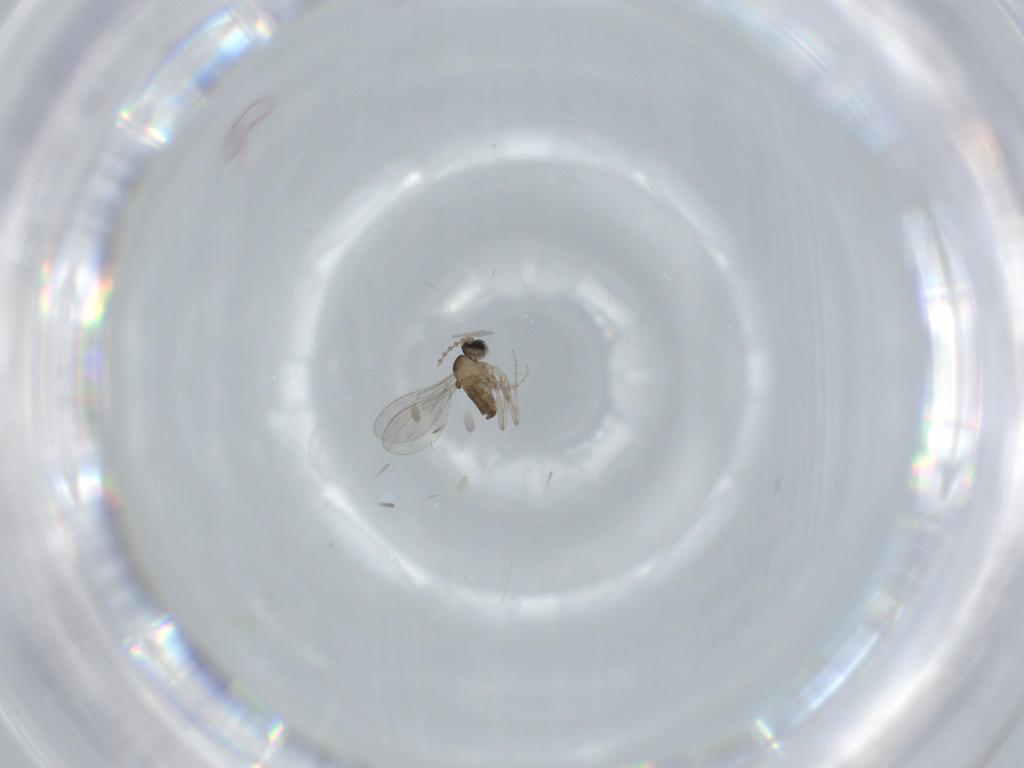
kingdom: Animalia
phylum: Arthropoda
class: Insecta
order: Diptera
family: Cecidomyiidae
